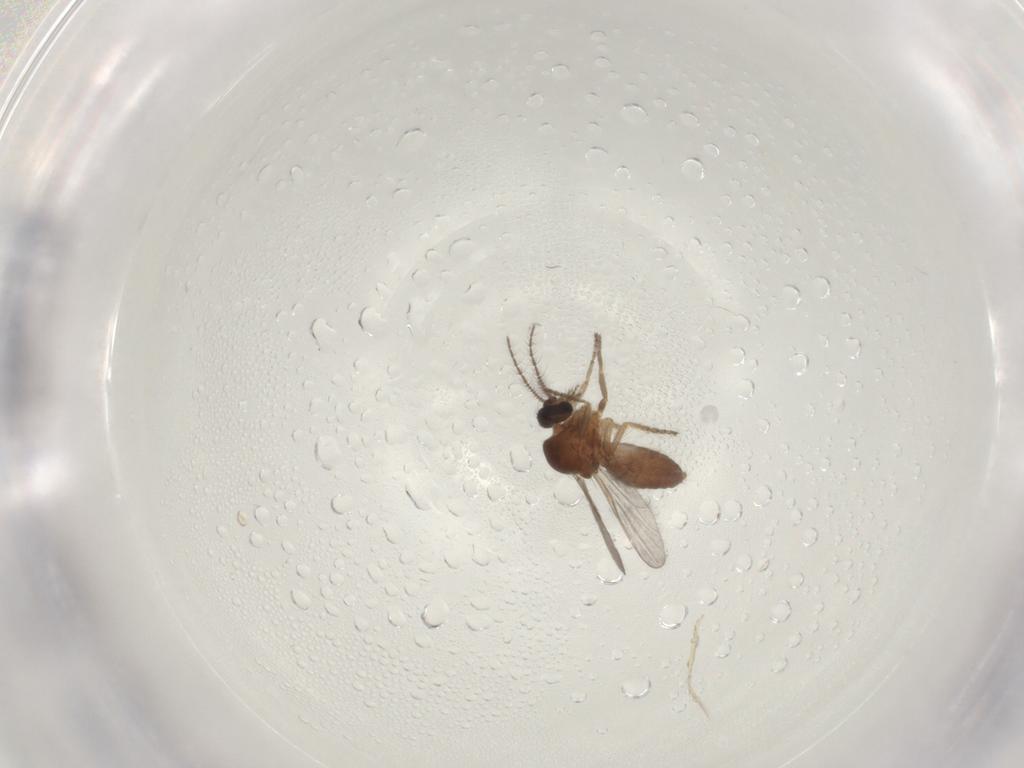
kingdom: Animalia
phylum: Arthropoda
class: Insecta
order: Diptera
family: Ceratopogonidae
